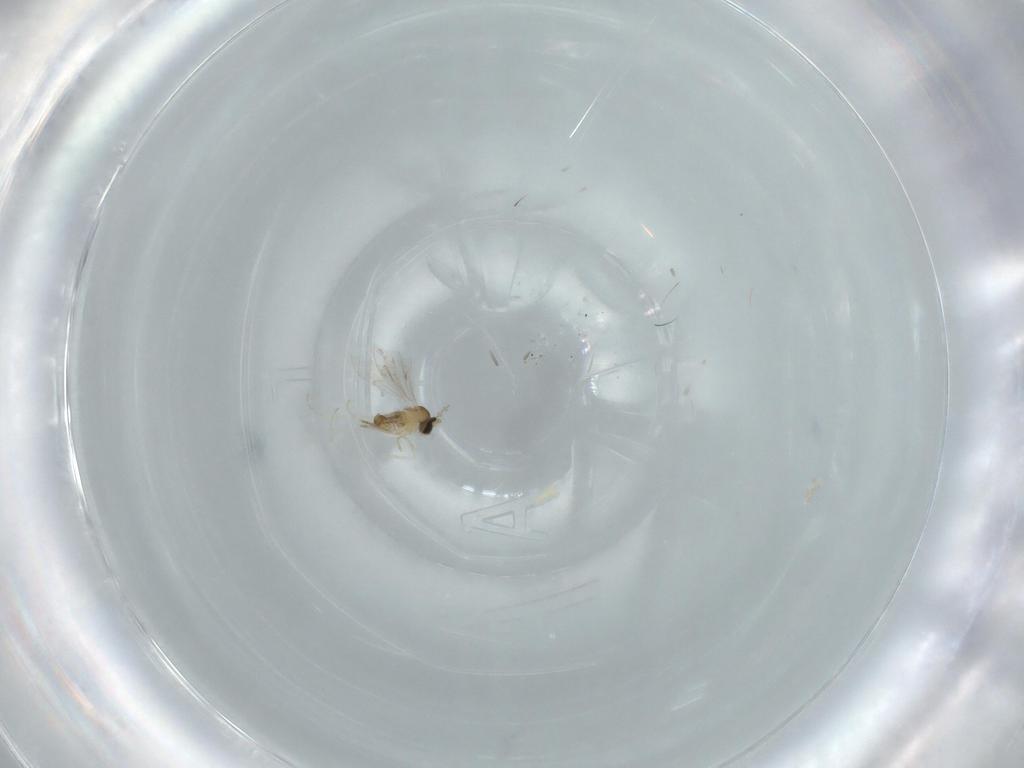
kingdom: Animalia
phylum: Arthropoda
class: Insecta
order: Diptera
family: Cecidomyiidae
